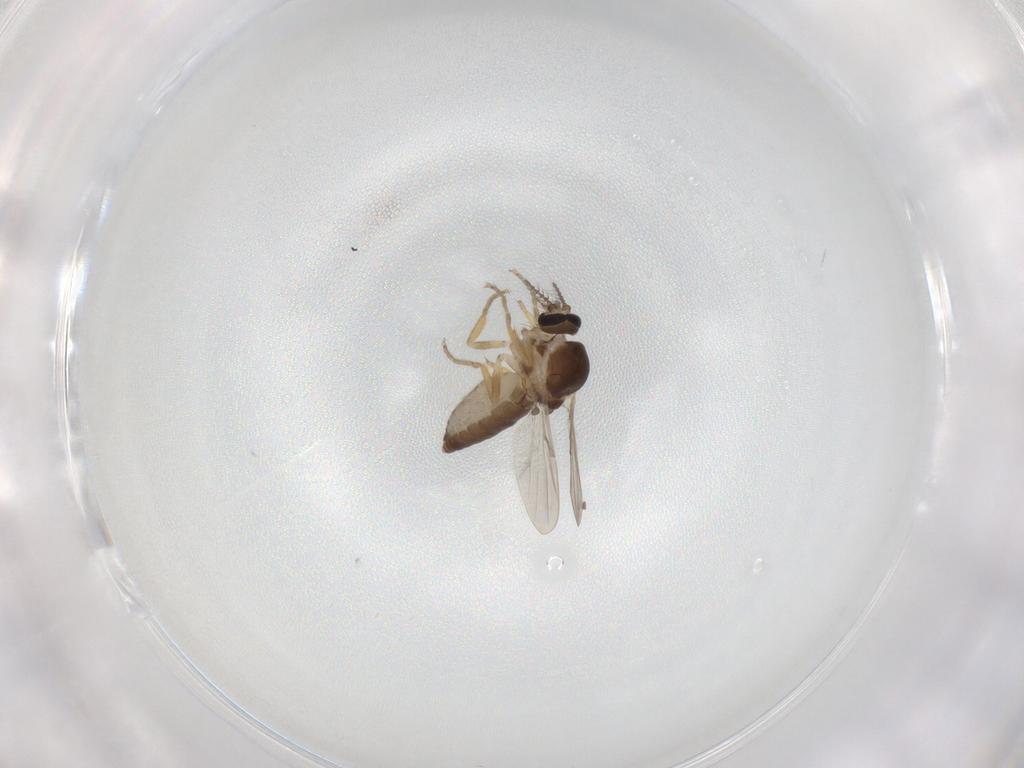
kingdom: Animalia
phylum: Arthropoda
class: Insecta
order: Diptera
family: Ceratopogonidae
